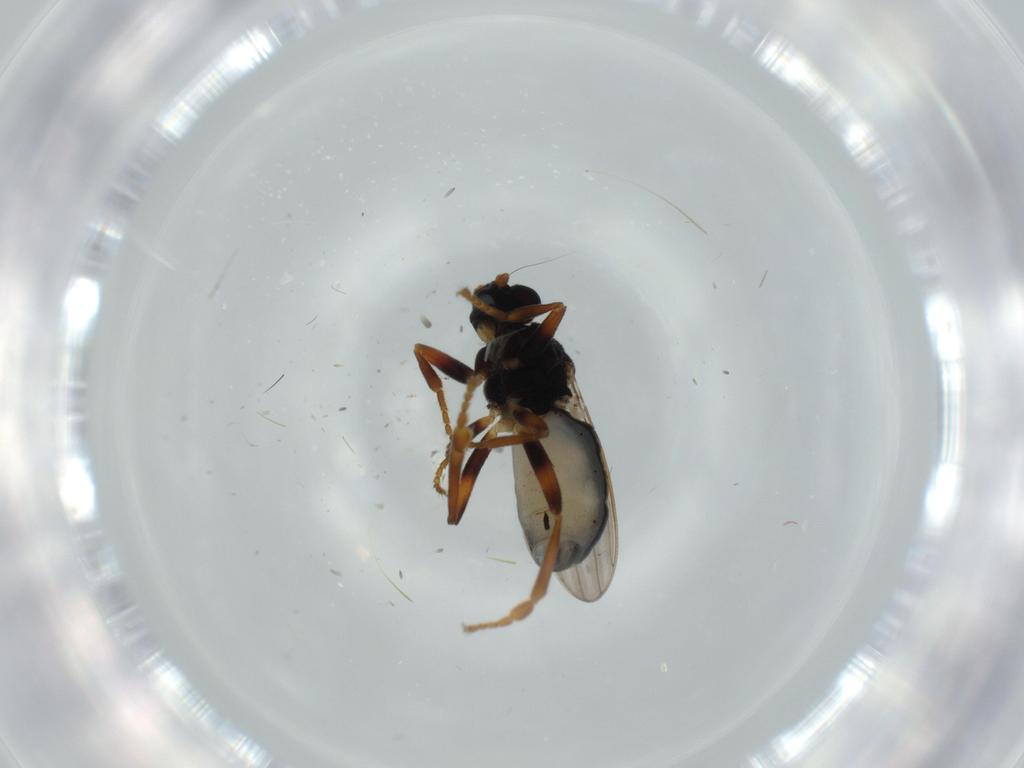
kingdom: Animalia
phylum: Arthropoda
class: Insecta
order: Diptera
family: Sphaeroceridae
